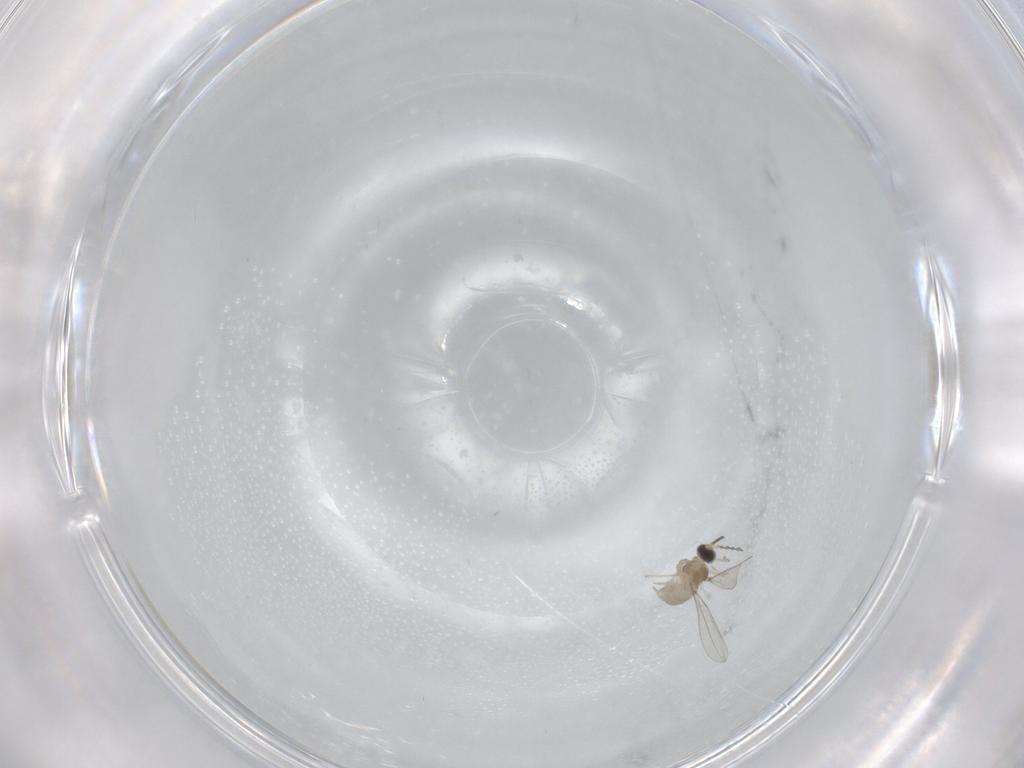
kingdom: Animalia
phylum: Arthropoda
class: Insecta
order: Diptera
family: Cecidomyiidae
